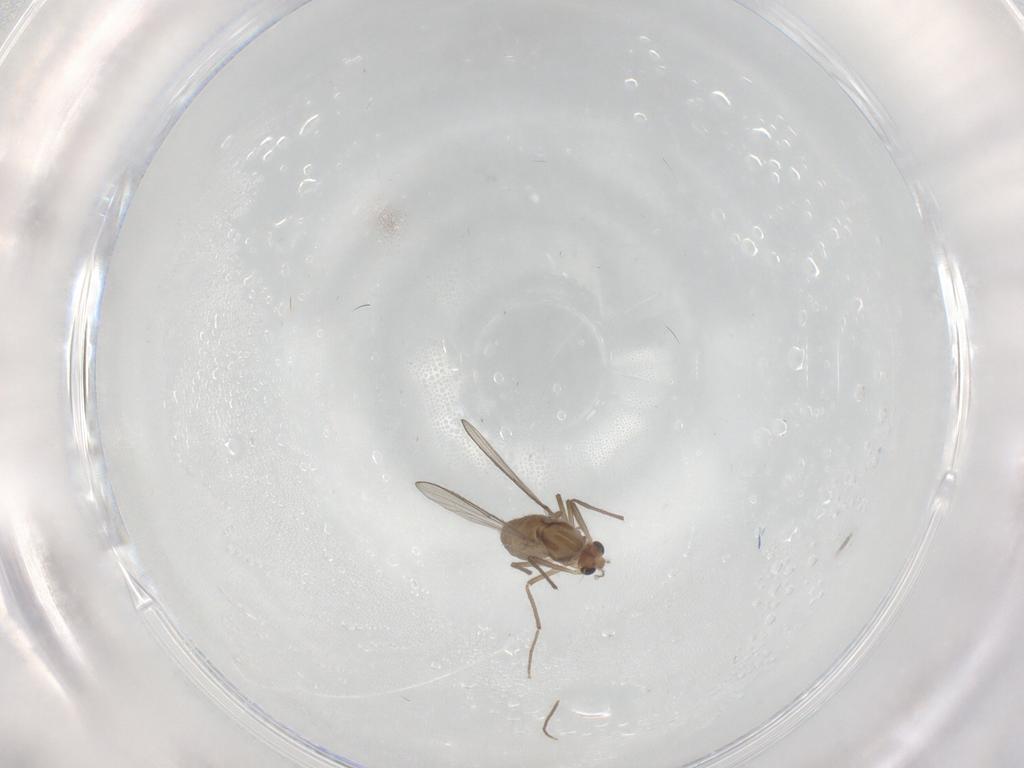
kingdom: Animalia
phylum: Arthropoda
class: Insecta
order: Diptera
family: Chironomidae
